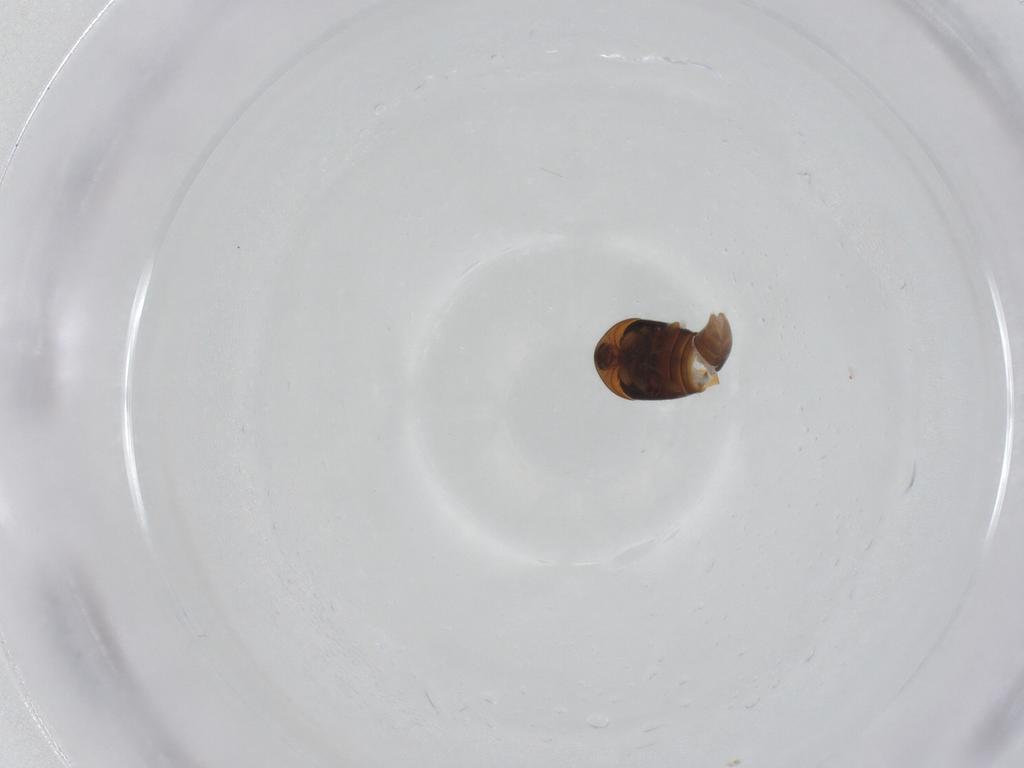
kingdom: Animalia
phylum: Arthropoda
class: Insecta
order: Coleoptera
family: Corylophidae
